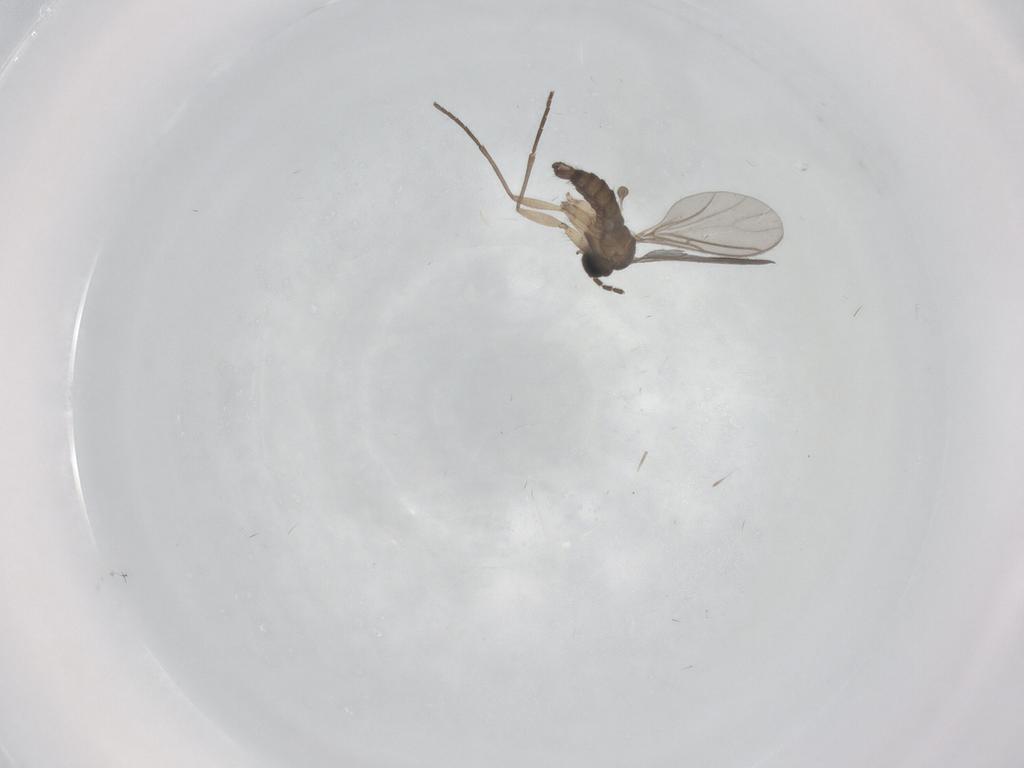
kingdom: Animalia
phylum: Arthropoda
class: Insecta
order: Diptera
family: Sciaridae
